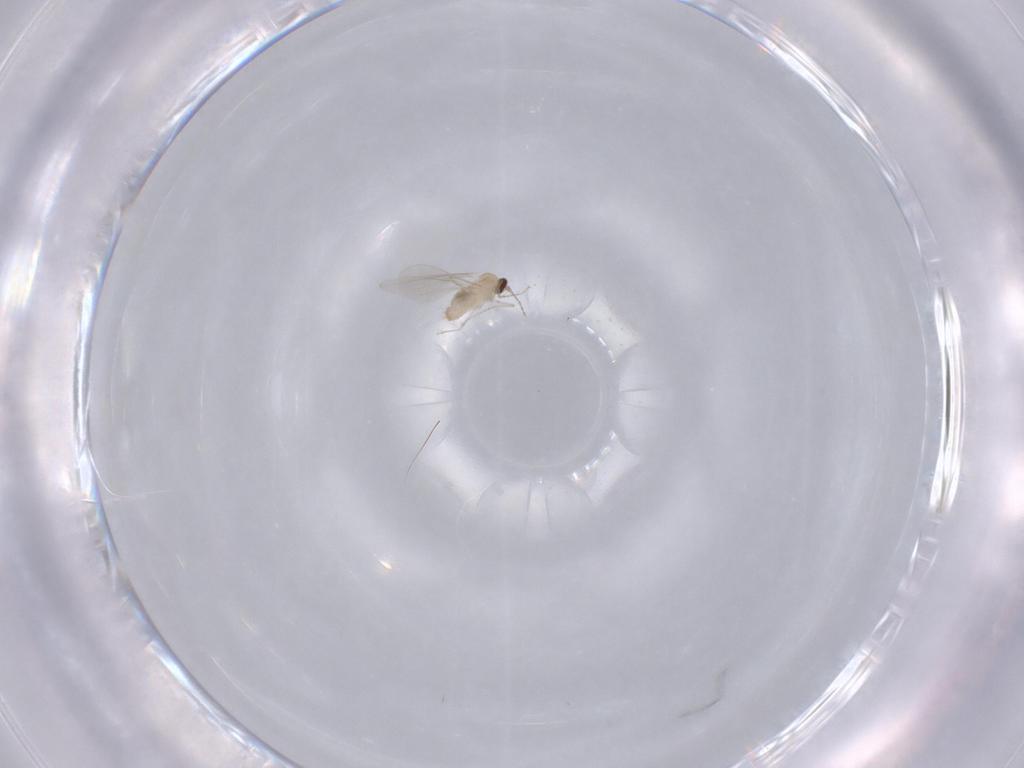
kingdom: Animalia
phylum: Arthropoda
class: Insecta
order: Diptera
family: Cecidomyiidae
